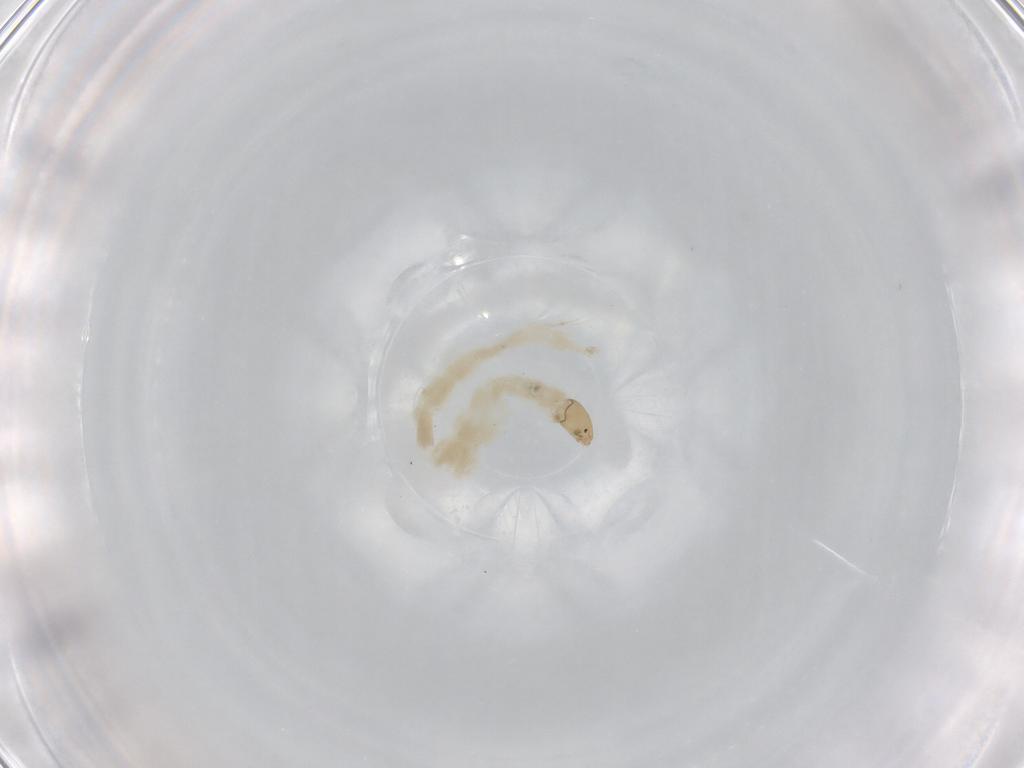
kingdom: Animalia
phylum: Arthropoda
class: Insecta
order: Diptera
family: Chironomidae
